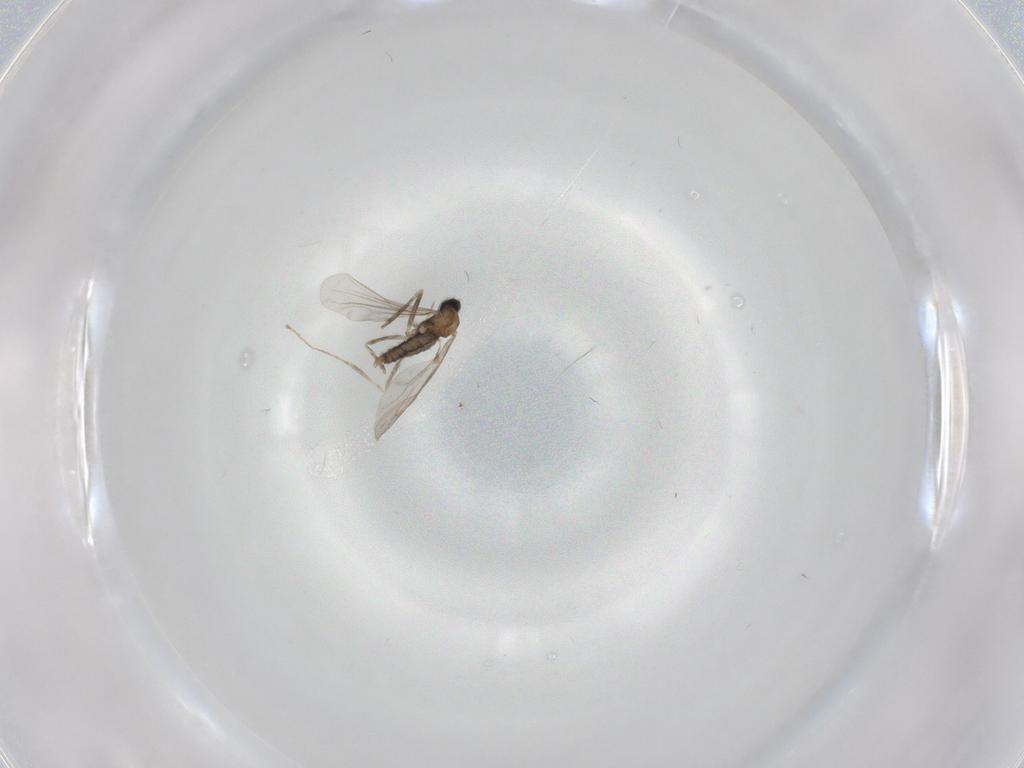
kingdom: Animalia
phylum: Arthropoda
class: Insecta
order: Diptera
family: Cecidomyiidae
